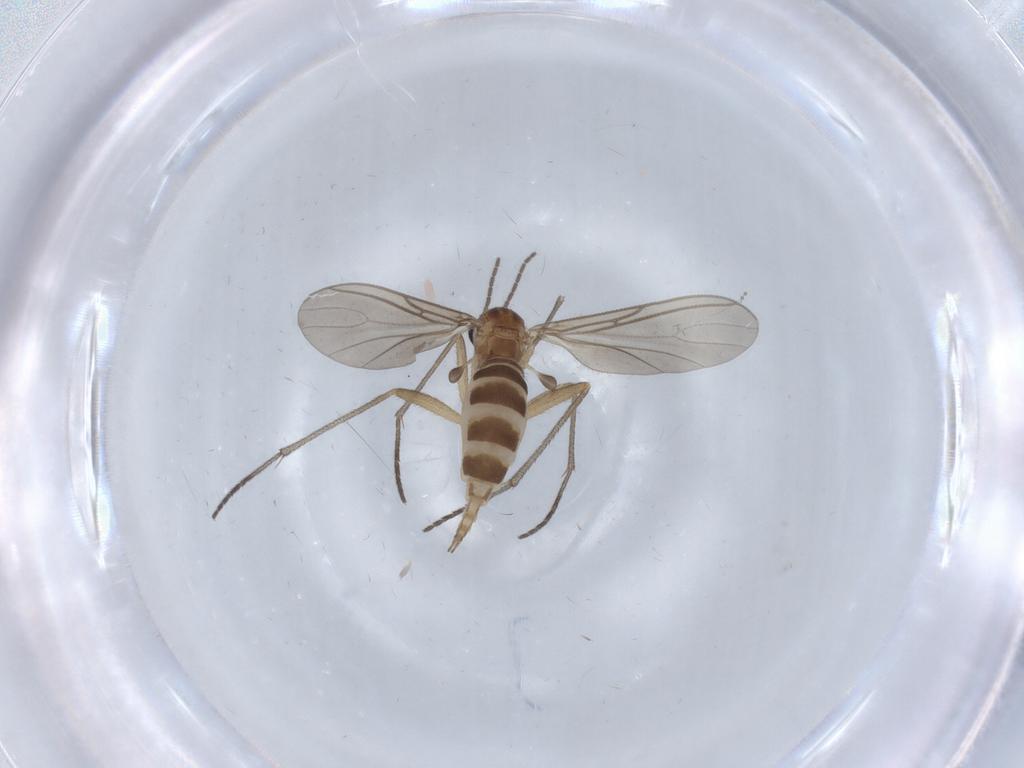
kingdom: Animalia
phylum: Arthropoda
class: Insecta
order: Diptera
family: Sciaridae
